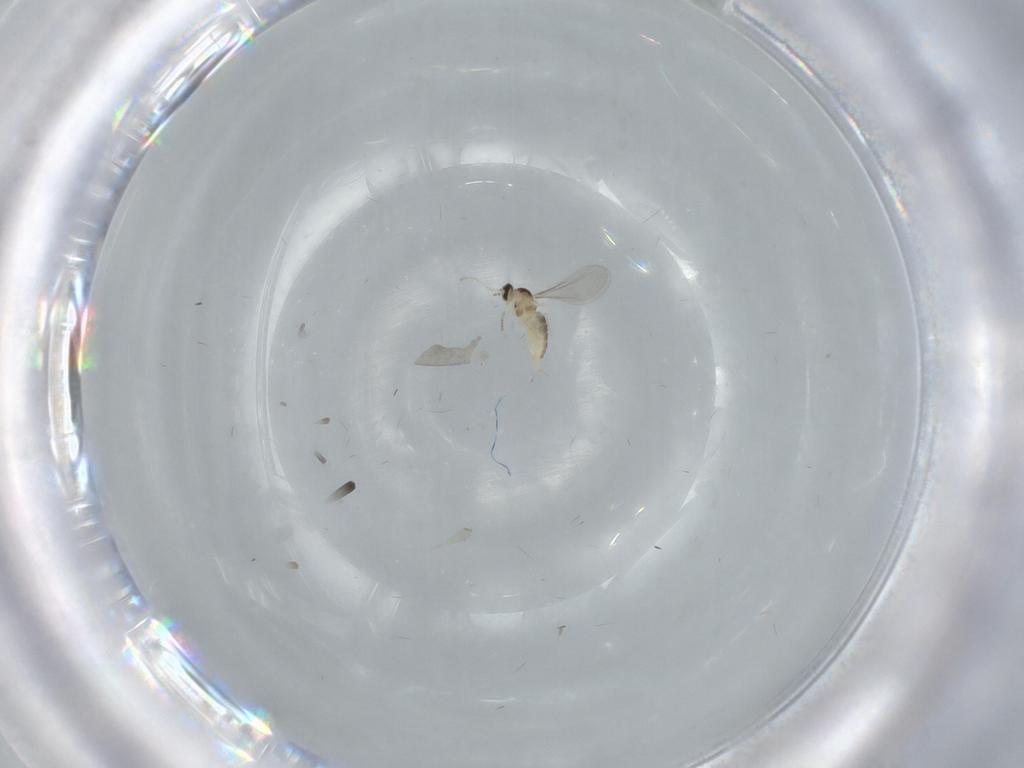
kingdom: Animalia
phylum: Arthropoda
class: Insecta
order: Diptera
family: Cecidomyiidae
